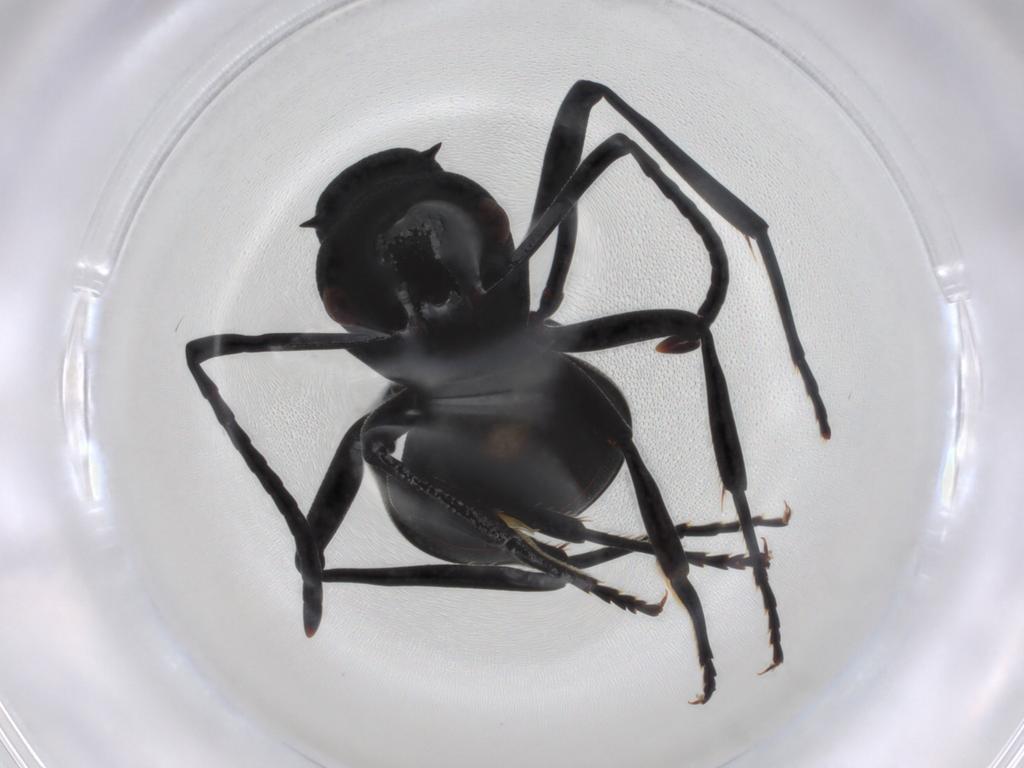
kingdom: Animalia
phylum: Arthropoda
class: Insecta
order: Hymenoptera
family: Formicidae
